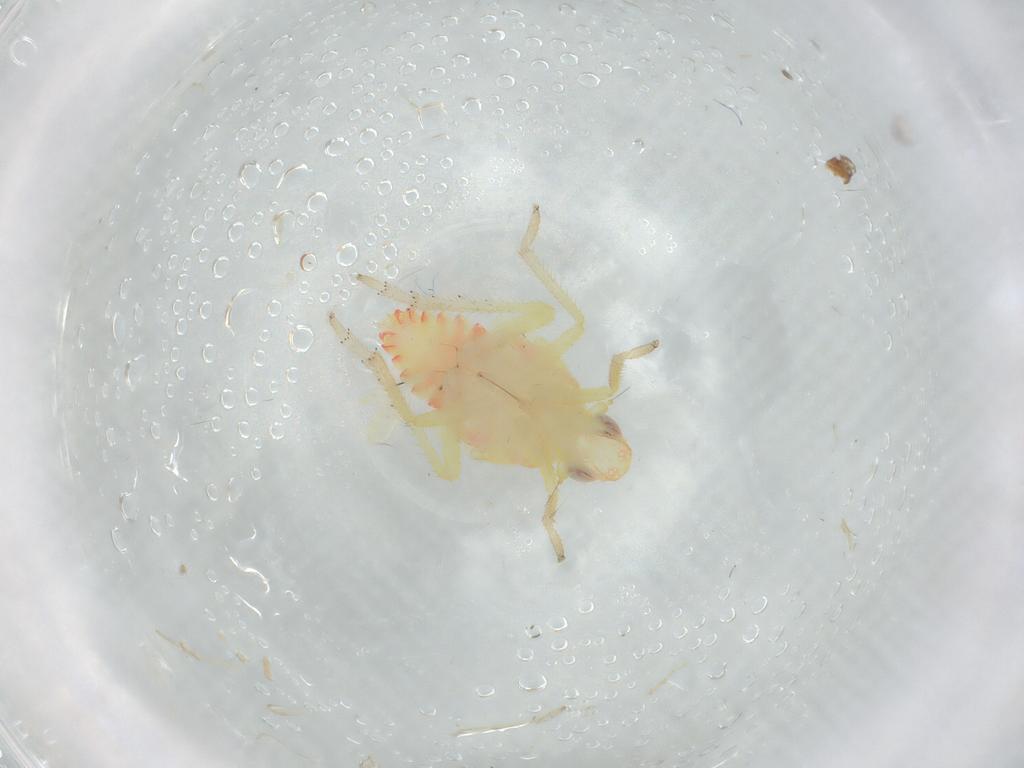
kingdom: Animalia
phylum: Arthropoda
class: Insecta
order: Hemiptera
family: Tropiduchidae
